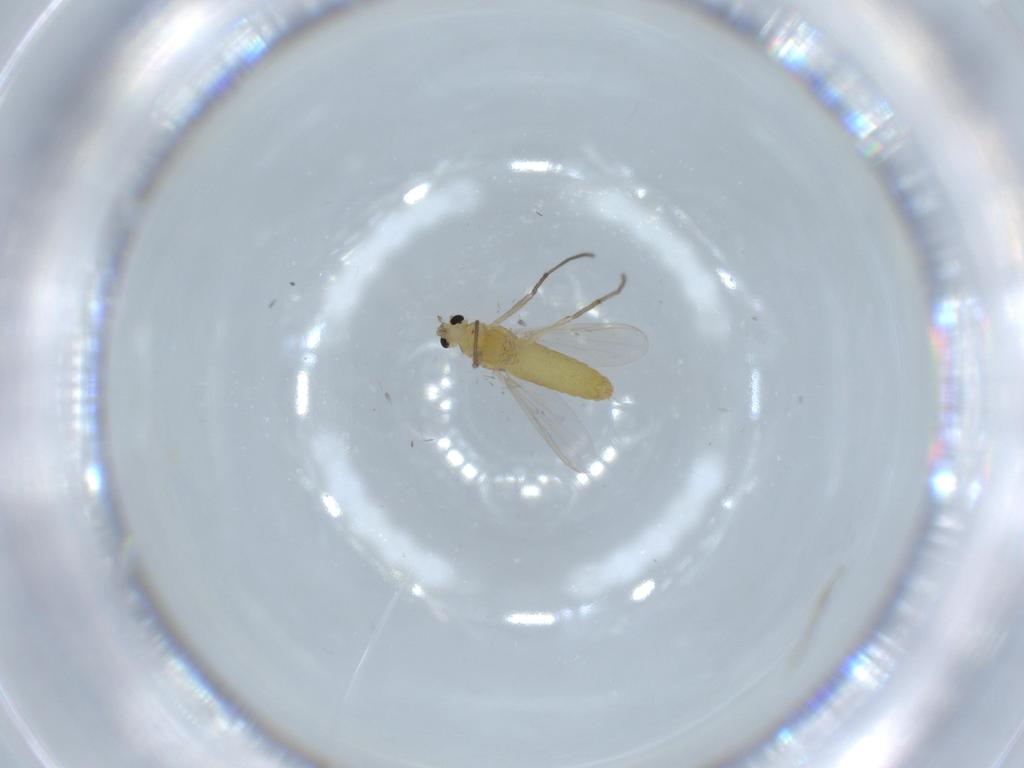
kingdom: Animalia
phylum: Arthropoda
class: Insecta
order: Diptera
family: Chironomidae
